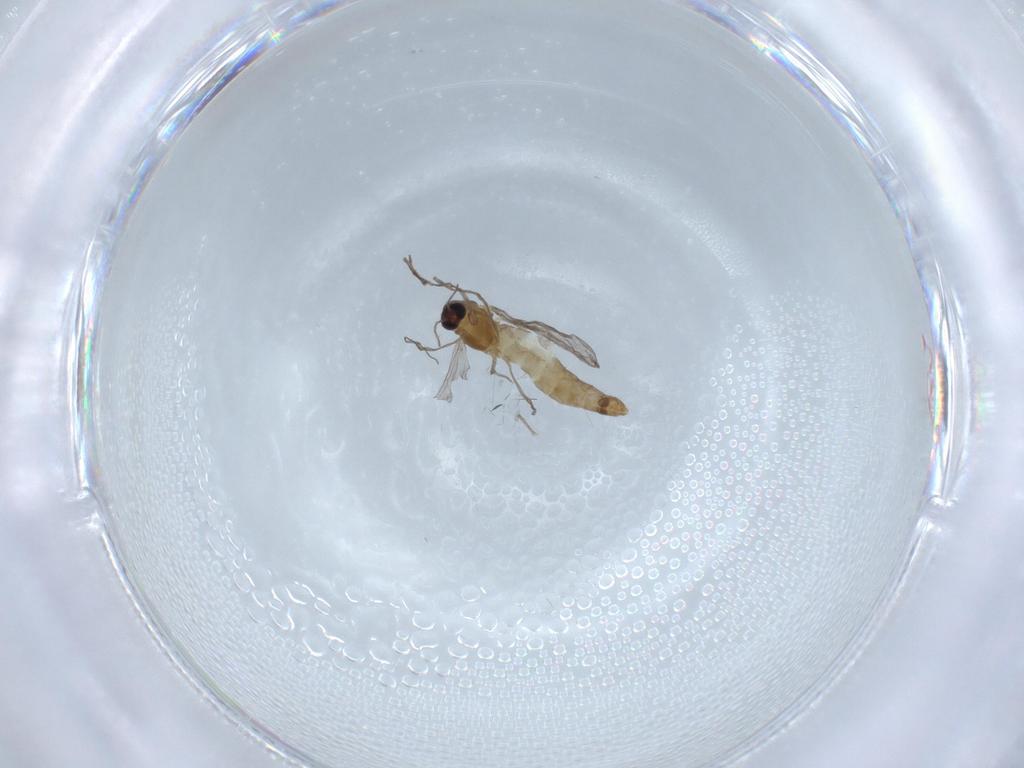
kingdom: Animalia
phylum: Arthropoda
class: Insecta
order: Diptera
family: Chironomidae
